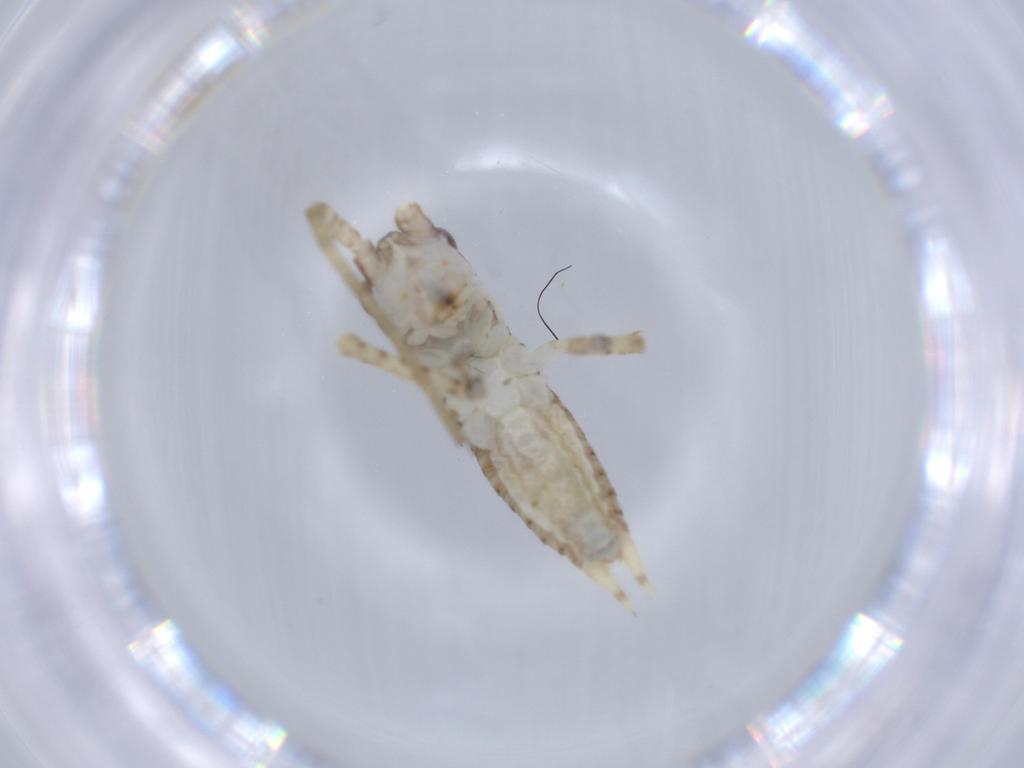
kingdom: Animalia
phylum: Arthropoda
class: Insecta
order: Orthoptera
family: Gryllidae
